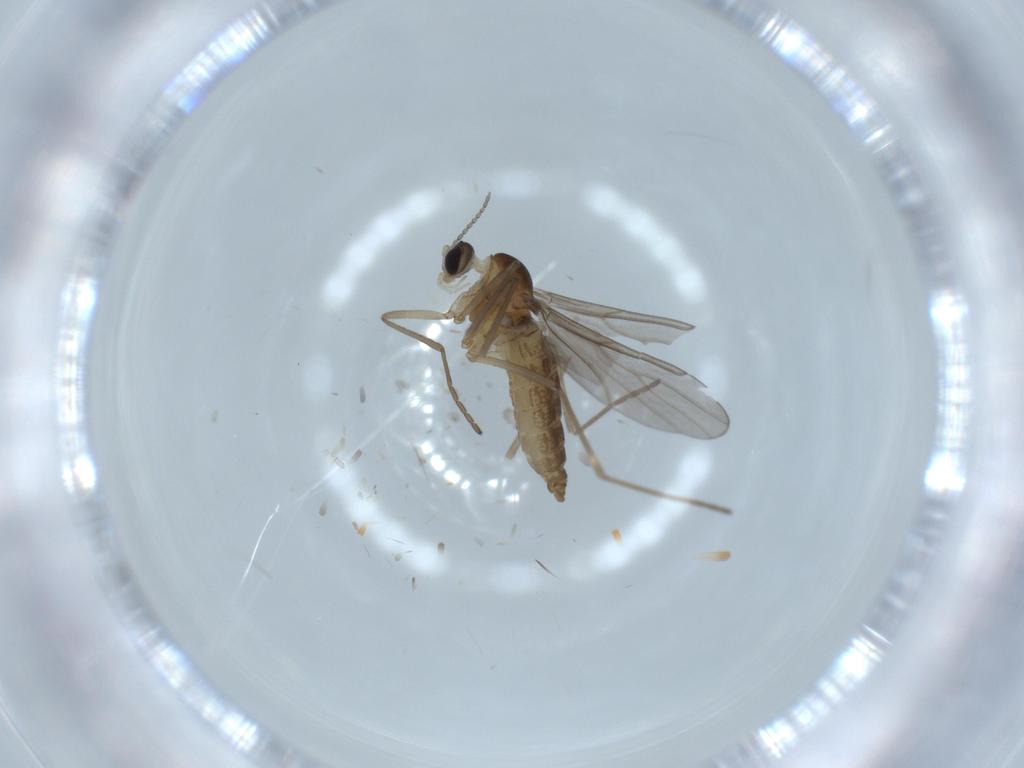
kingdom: Animalia
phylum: Arthropoda
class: Insecta
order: Diptera
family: Cecidomyiidae
